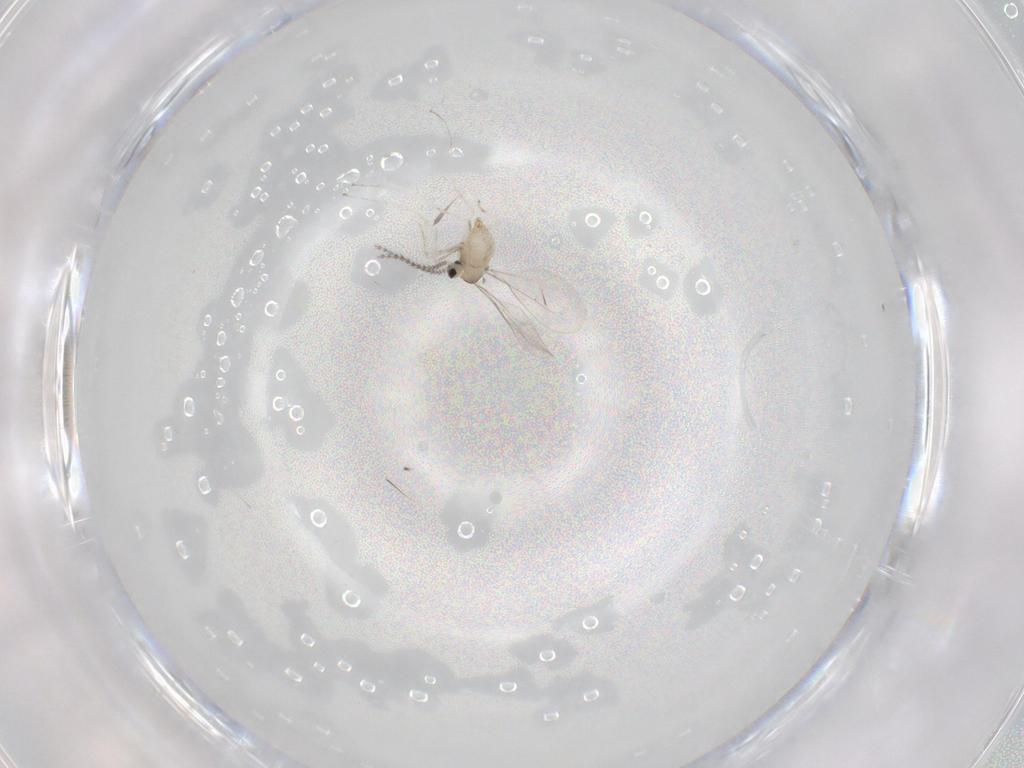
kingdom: Animalia
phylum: Arthropoda
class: Insecta
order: Diptera
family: Cecidomyiidae
